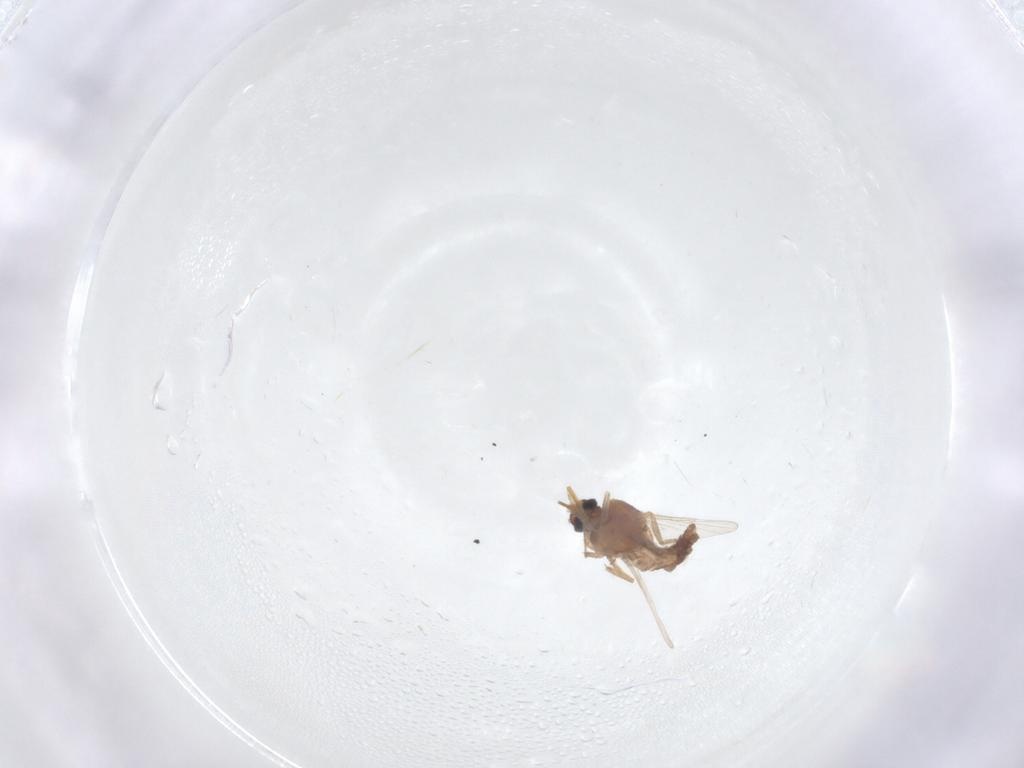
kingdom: Animalia
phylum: Arthropoda
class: Insecta
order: Diptera
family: Ceratopogonidae
